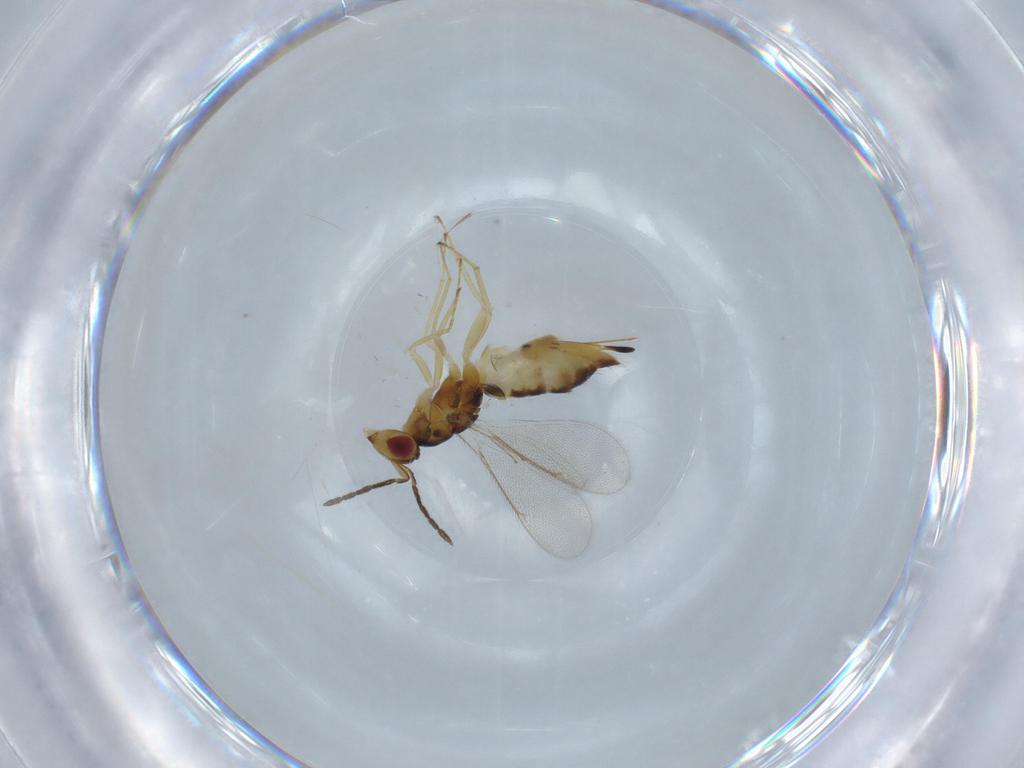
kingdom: Animalia
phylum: Arthropoda
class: Insecta
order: Hymenoptera
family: Eulophidae
